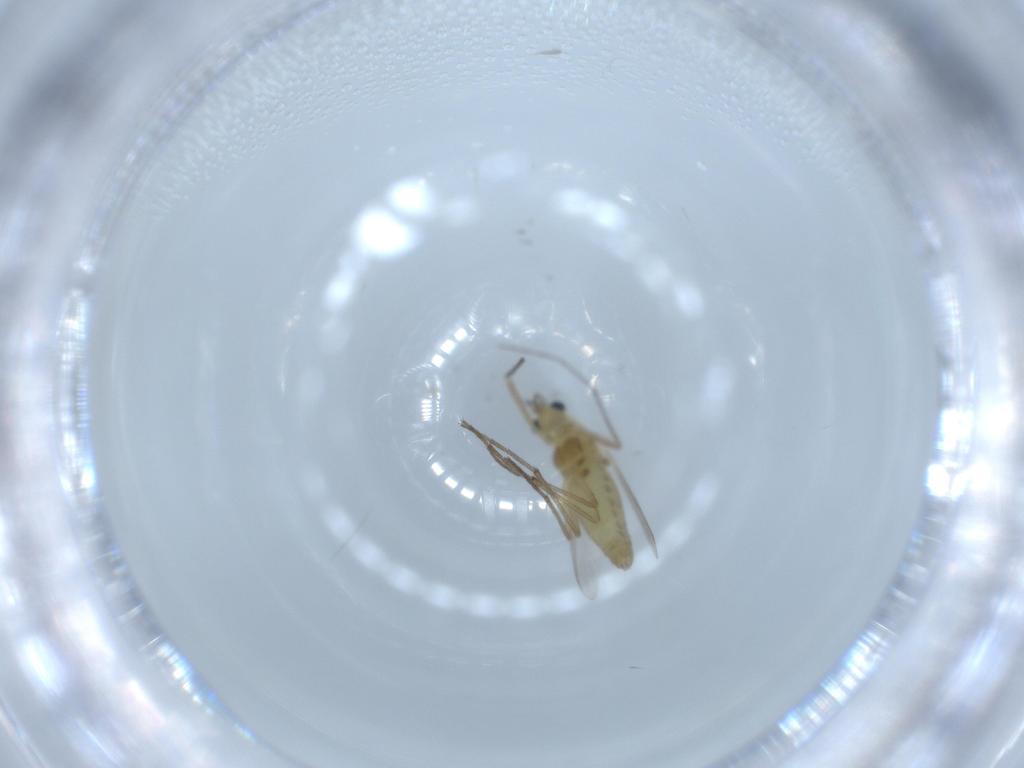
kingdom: Animalia
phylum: Arthropoda
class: Insecta
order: Diptera
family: Chironomidae
